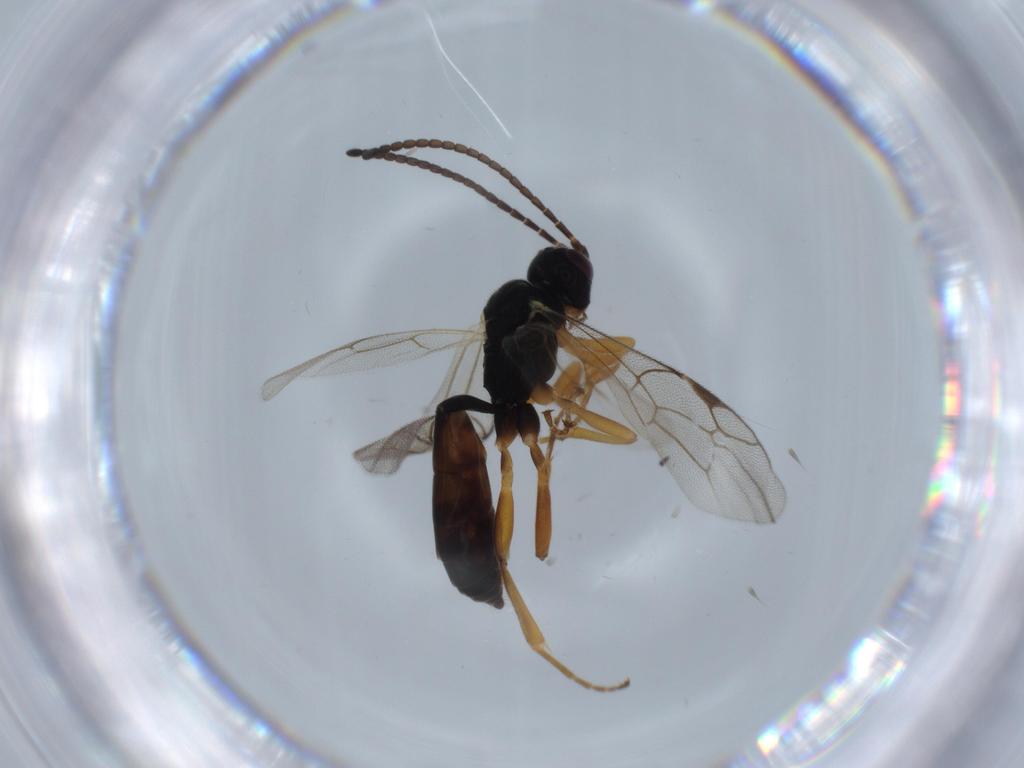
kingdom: Animalia
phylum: Arthropoda
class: Insecta
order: Hymenoptera
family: Ichneumonidae
